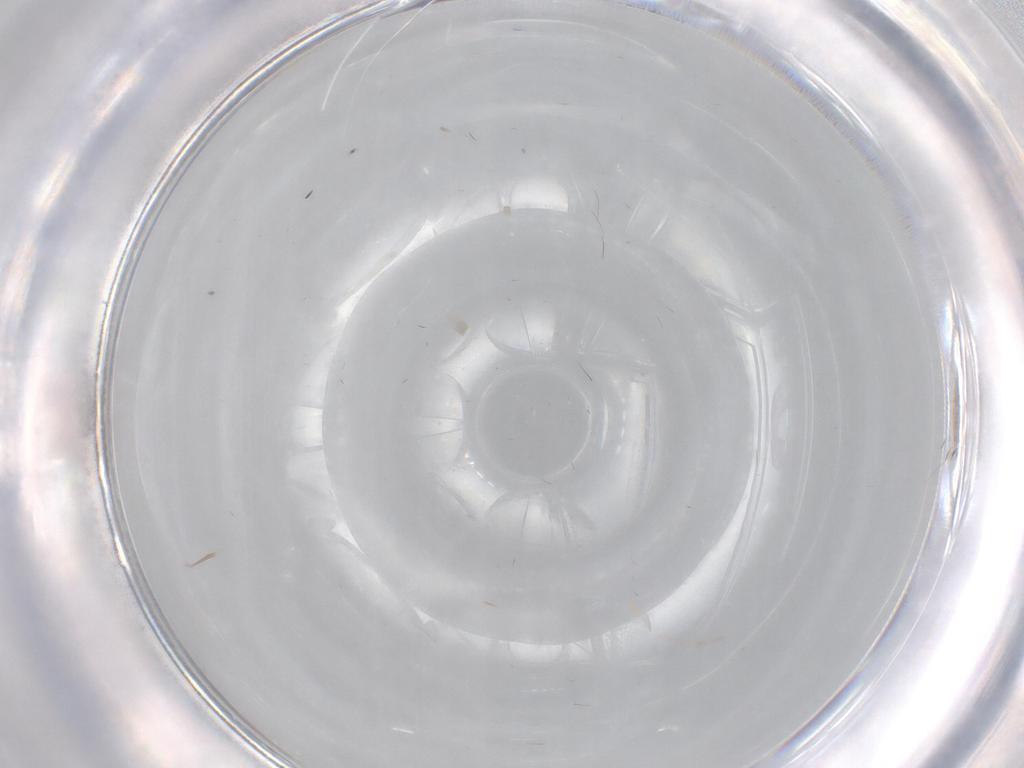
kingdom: Animalia
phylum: Arthropoda
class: Insecta
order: Diptera
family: Phoridae
